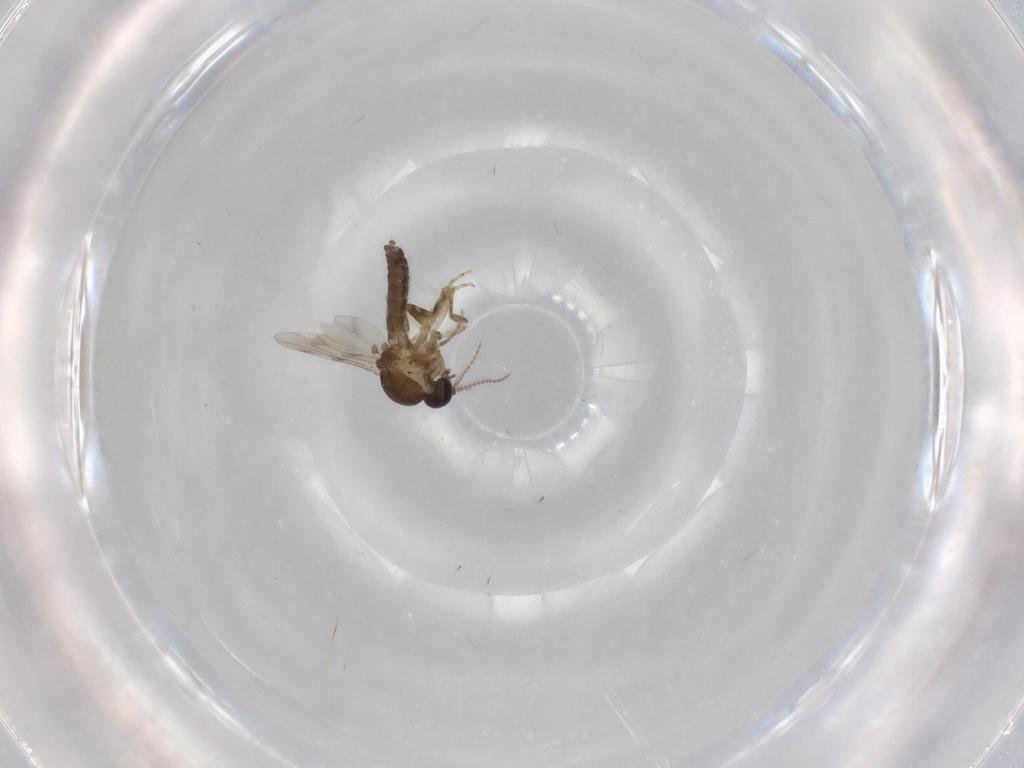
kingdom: Animalia
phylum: Arthropoda
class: Insecta
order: Diptera
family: Ceratopogonidae
